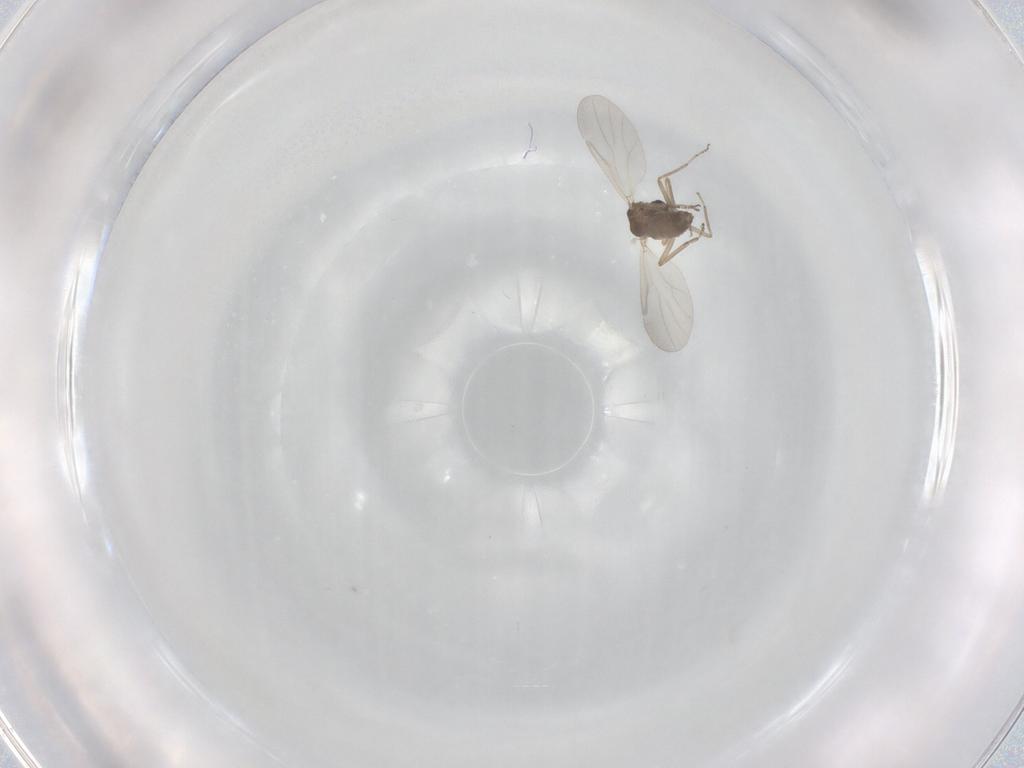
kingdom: Animalia
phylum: Arthropoda
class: Insecta
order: Diptera
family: Ceratopogonidae
